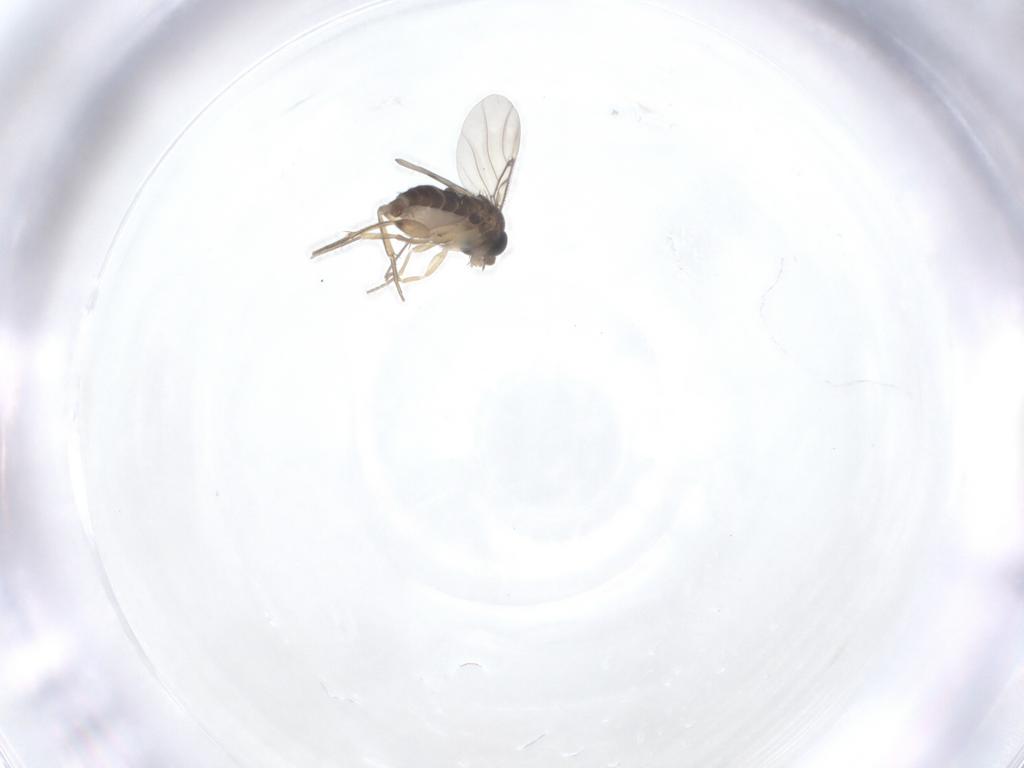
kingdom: Animalia
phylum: Arthropoda
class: Insecta
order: Diptera
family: Phoridae
